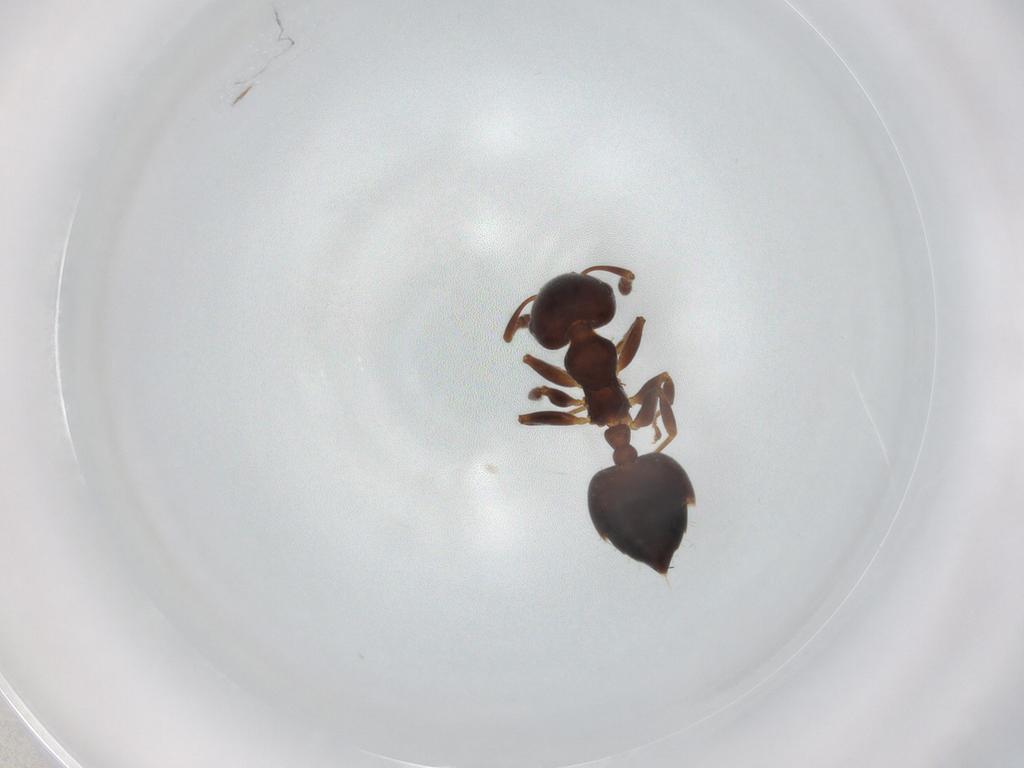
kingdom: Animalia
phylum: Arthropoda
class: Insecta
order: Hymenoptera
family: Formicidae
